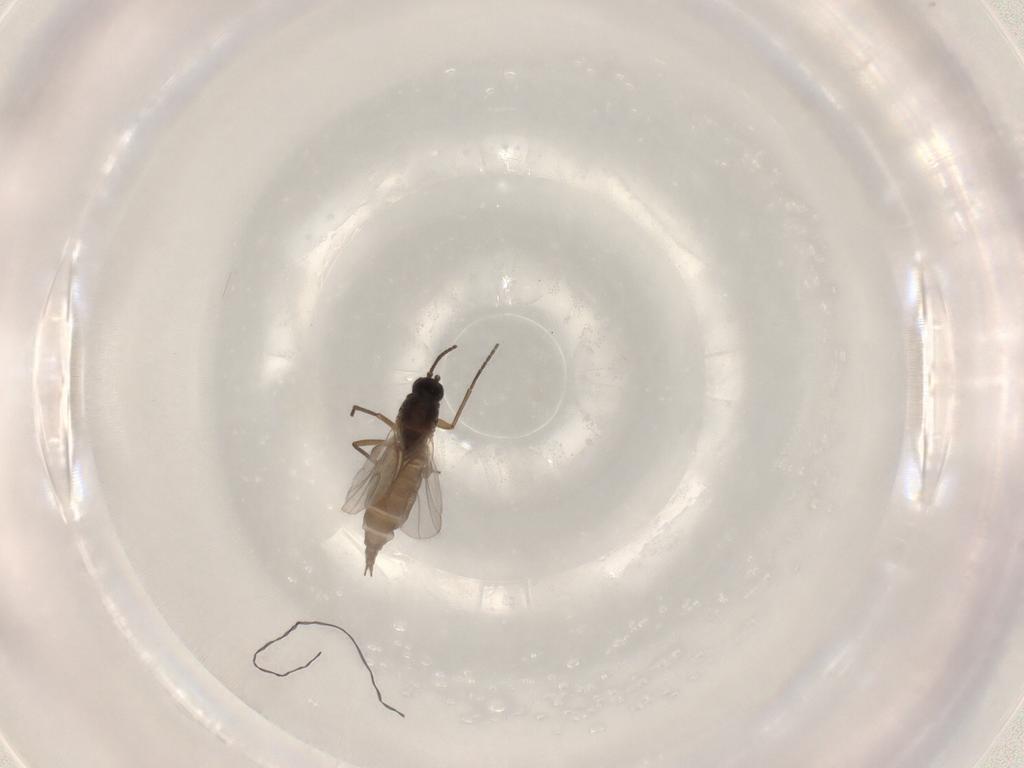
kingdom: Animalia
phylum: Arthropoda
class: Insecta
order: Diptera
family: Sciaridae
